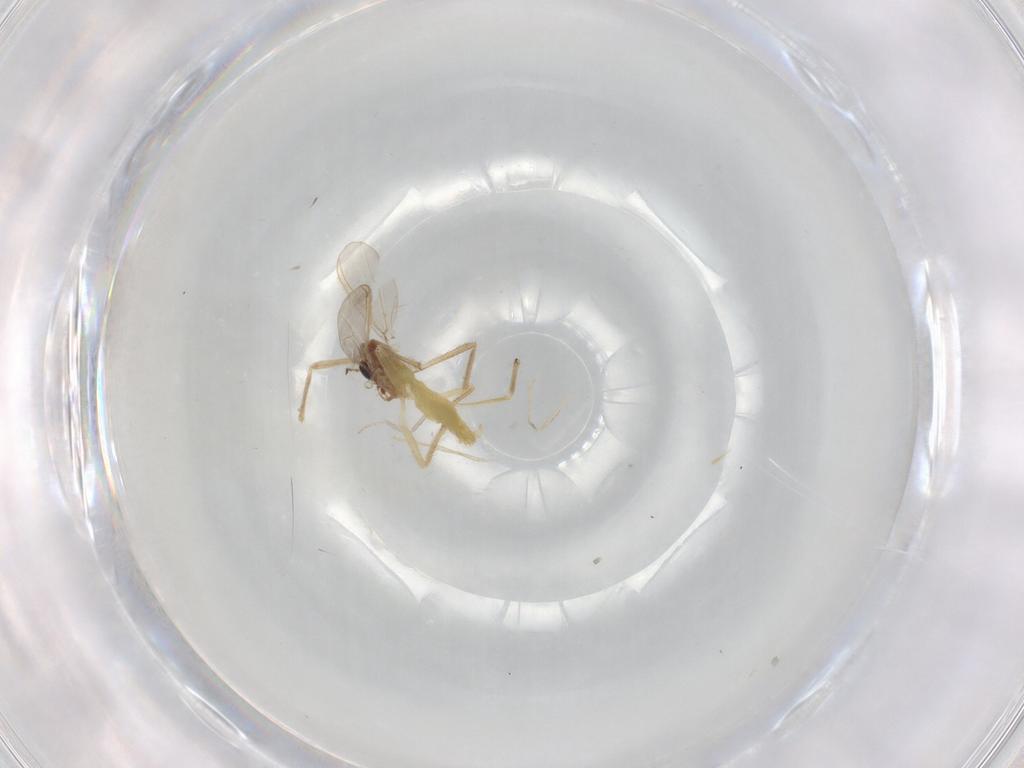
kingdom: Animalia
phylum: Arthropoda
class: Insecta
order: Diptera
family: Chironomidae
